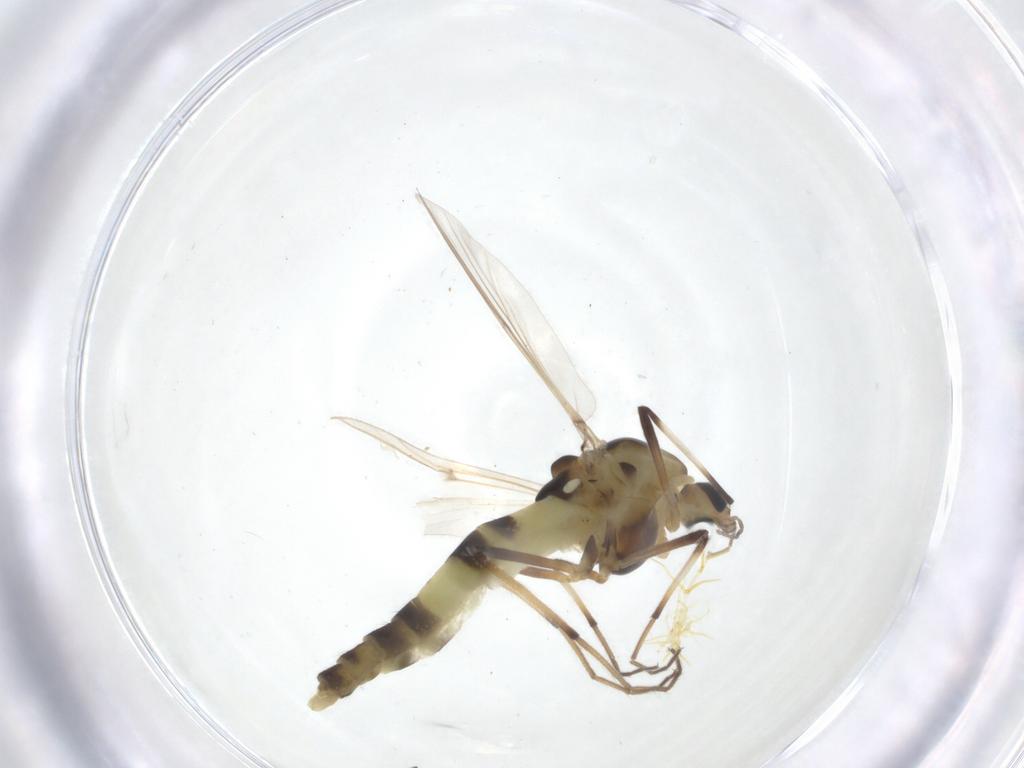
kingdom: Animalia
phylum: Arthropoda
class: Insecta
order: Diptera
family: Chironomidae
